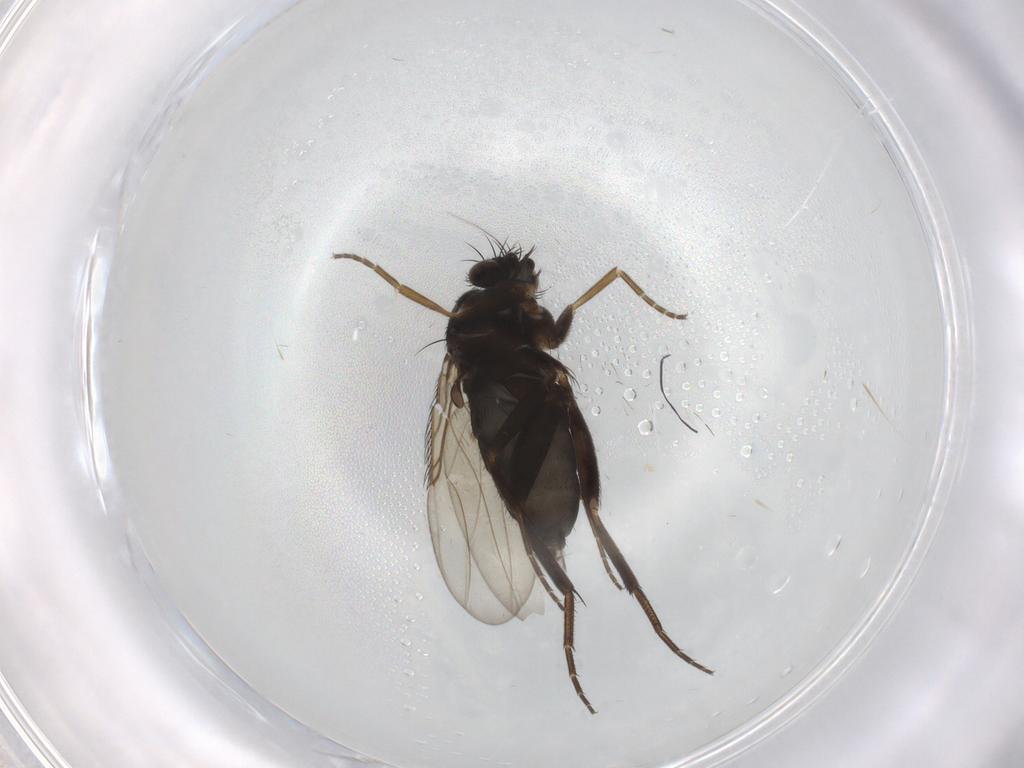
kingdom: Animalia
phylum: Arthropoda
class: Insecta
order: Diptera
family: Phoridae
